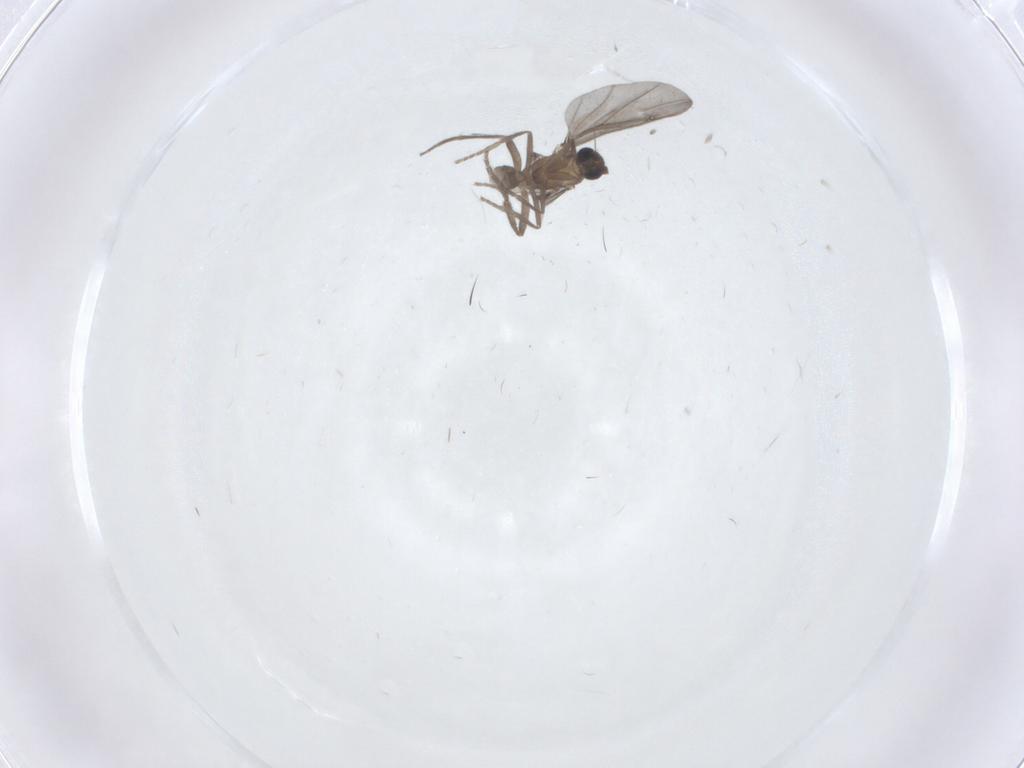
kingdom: Animalia
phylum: Arthropoda
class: Insecta
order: Diptera
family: Phoridae
